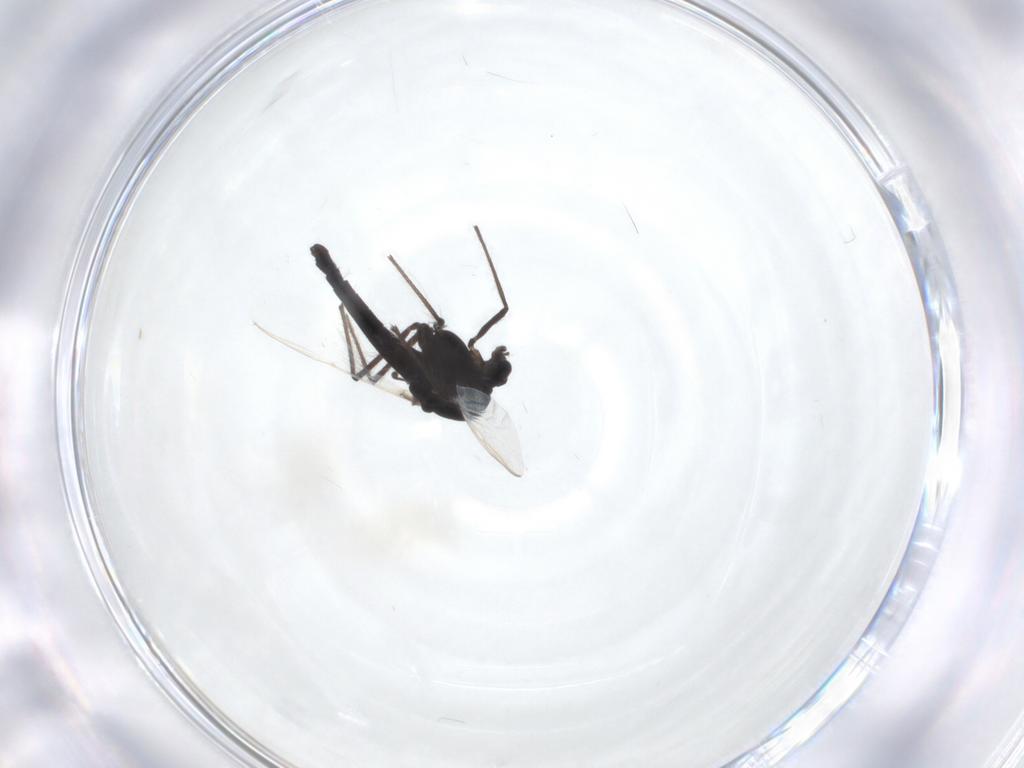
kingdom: Animalia
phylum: Arthropoda
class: Insecta
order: Diptera
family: Chironomidae
